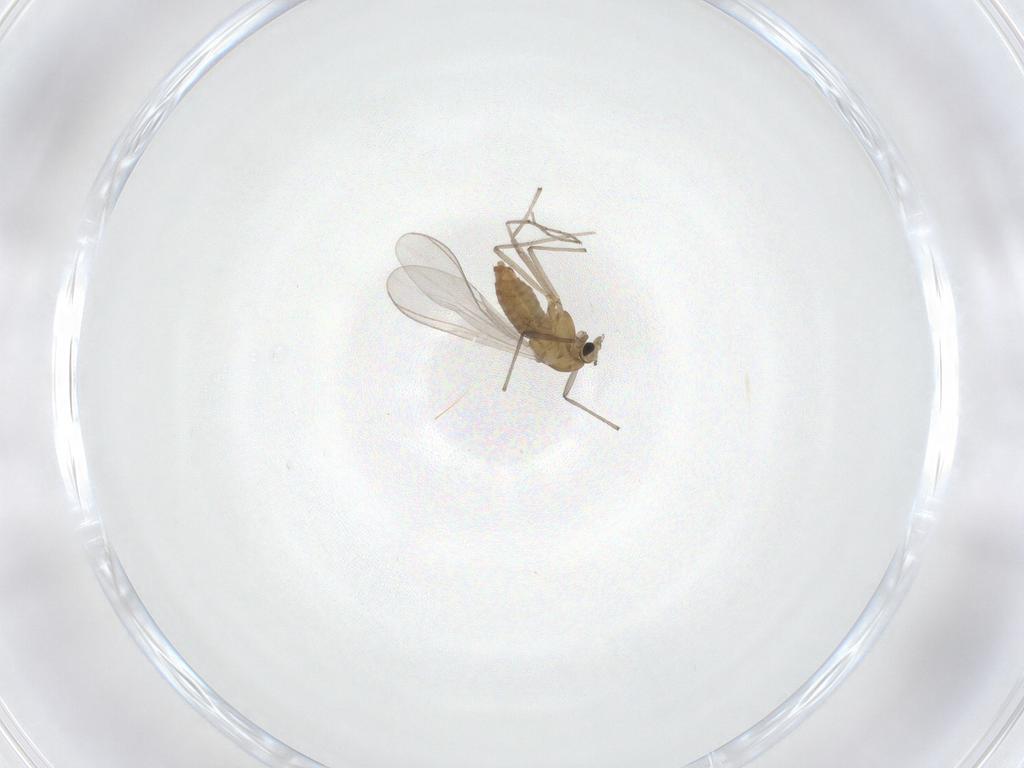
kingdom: Animalia
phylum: Arthropoda
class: Insecta
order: Diptera
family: Chironomidae
